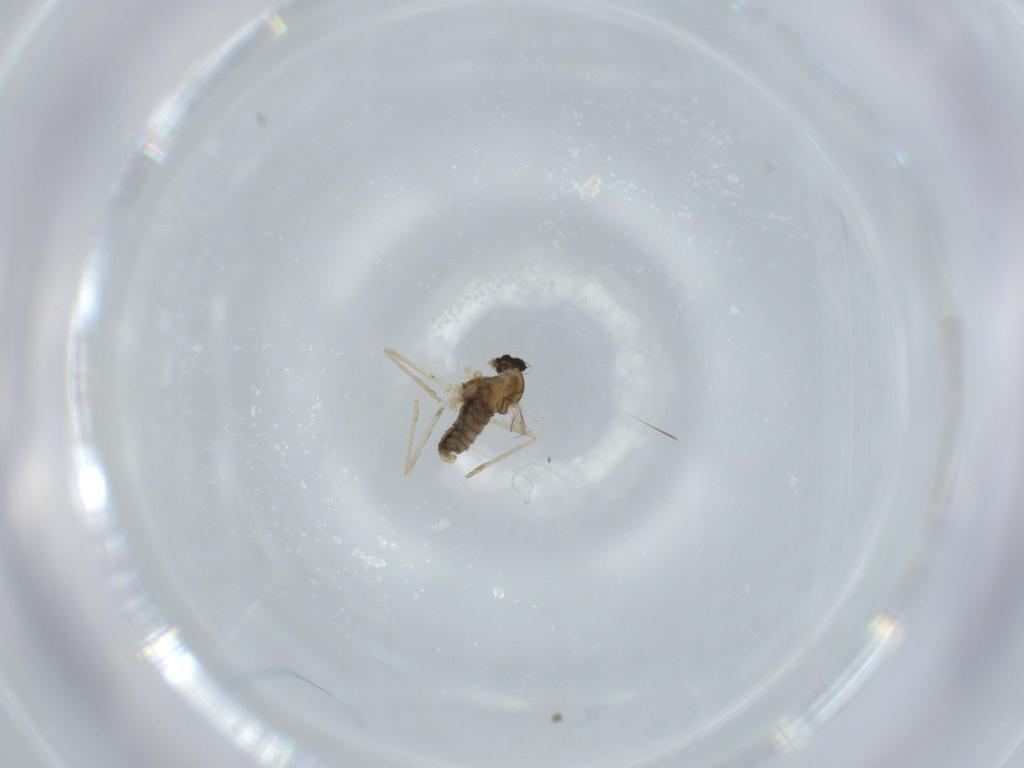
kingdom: Animalia
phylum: Arthropoda
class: Insecta
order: Diptera
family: Cecidomyiidae
